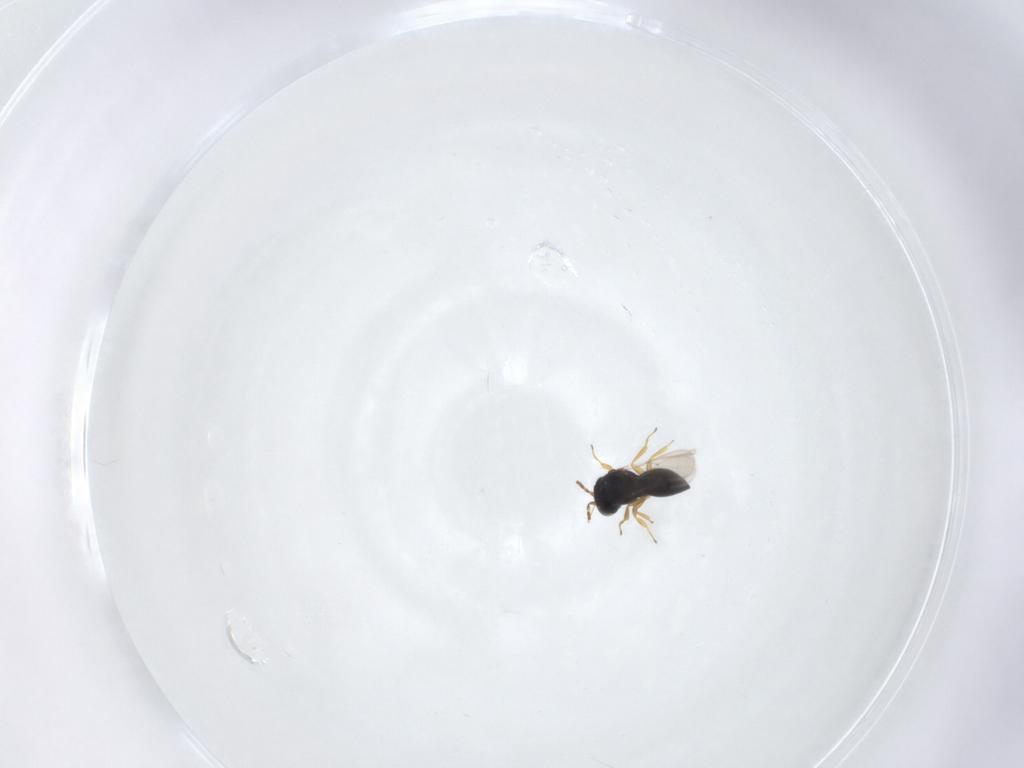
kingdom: Animalia
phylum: Arthropoda
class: Insecta
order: Hymenoptera
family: Scelionidae
